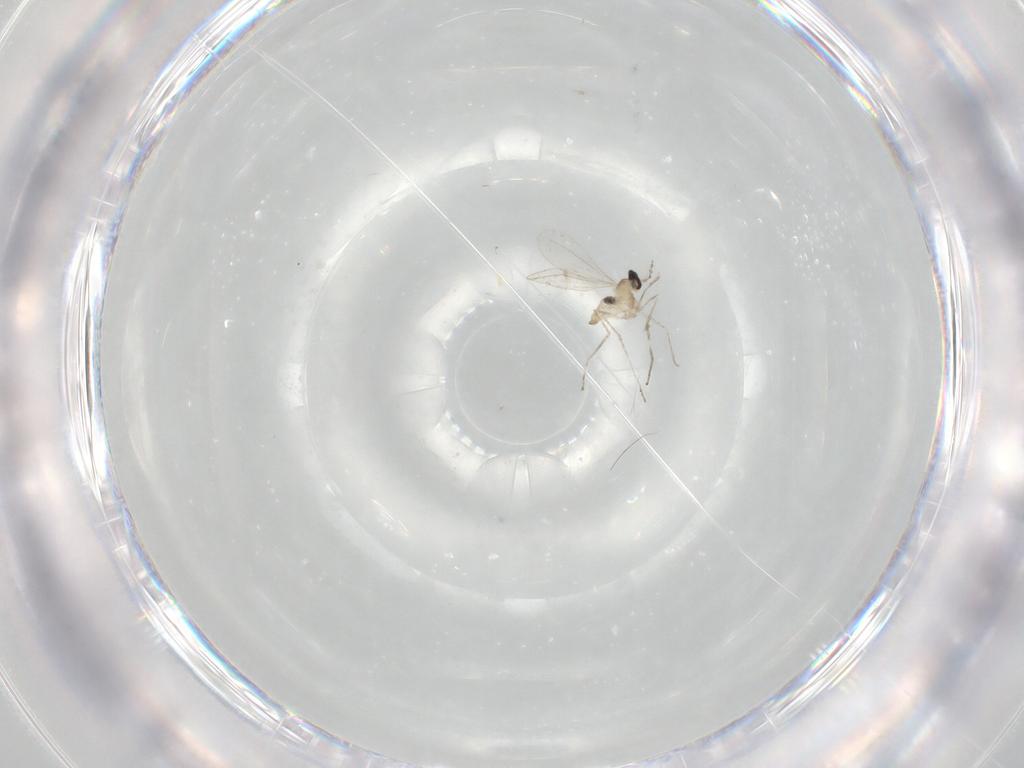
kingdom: Animalia
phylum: Arthropoda
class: Insecta
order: Diptera
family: Cecidomyiidae
